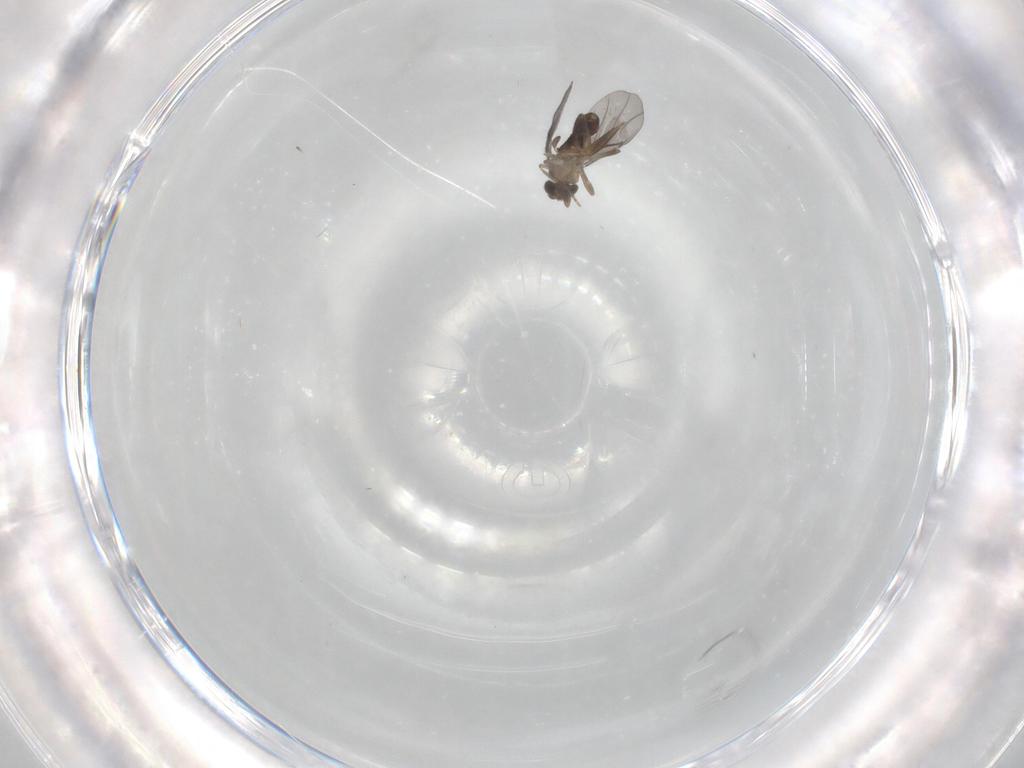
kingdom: Animalia
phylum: Arthropoda
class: Insecta
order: Diptera
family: Phoridae
